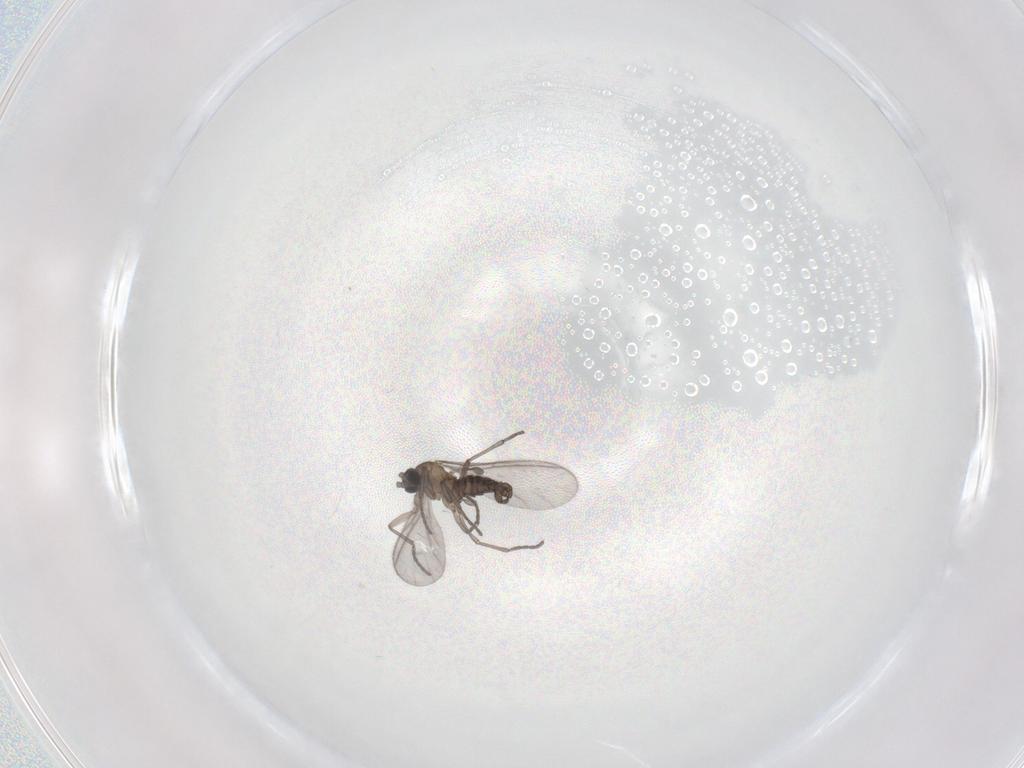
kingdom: Animalia
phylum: Arthropoda
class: Insecta
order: Diptera
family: Sciaridae
